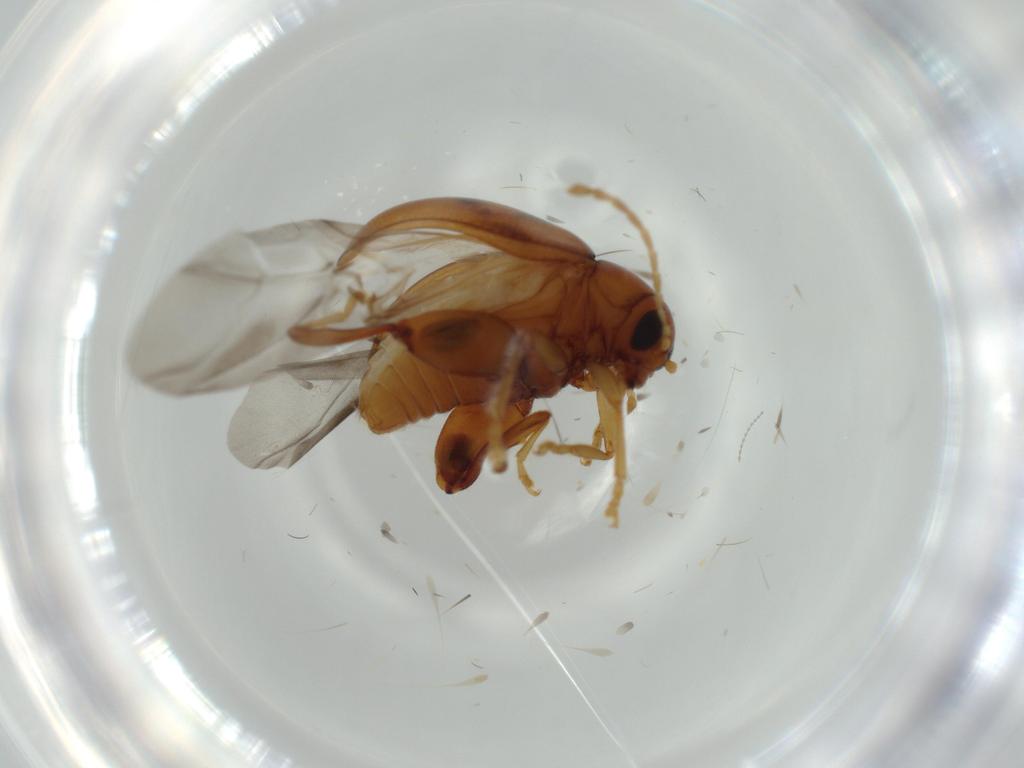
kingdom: Animalia
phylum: Arthropoda
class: Insecta
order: Coleoptera
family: Chrysomelidae
